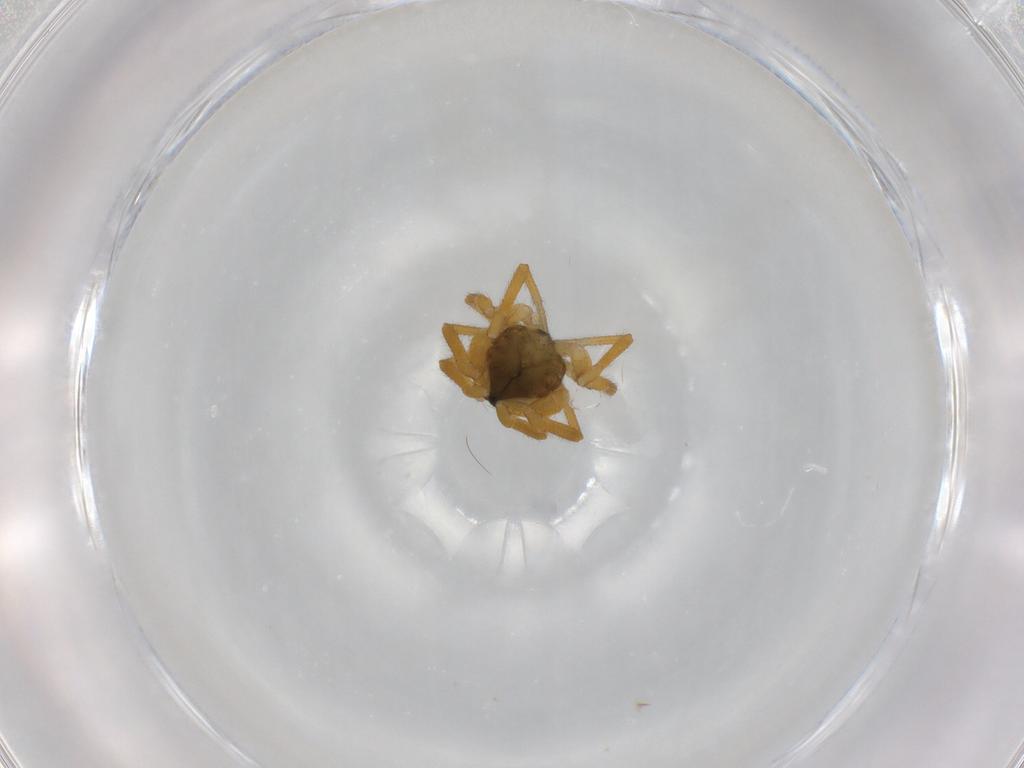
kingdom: Animalia
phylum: Arthropoda
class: Arachnida
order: Araneae
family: Linyphiidae
